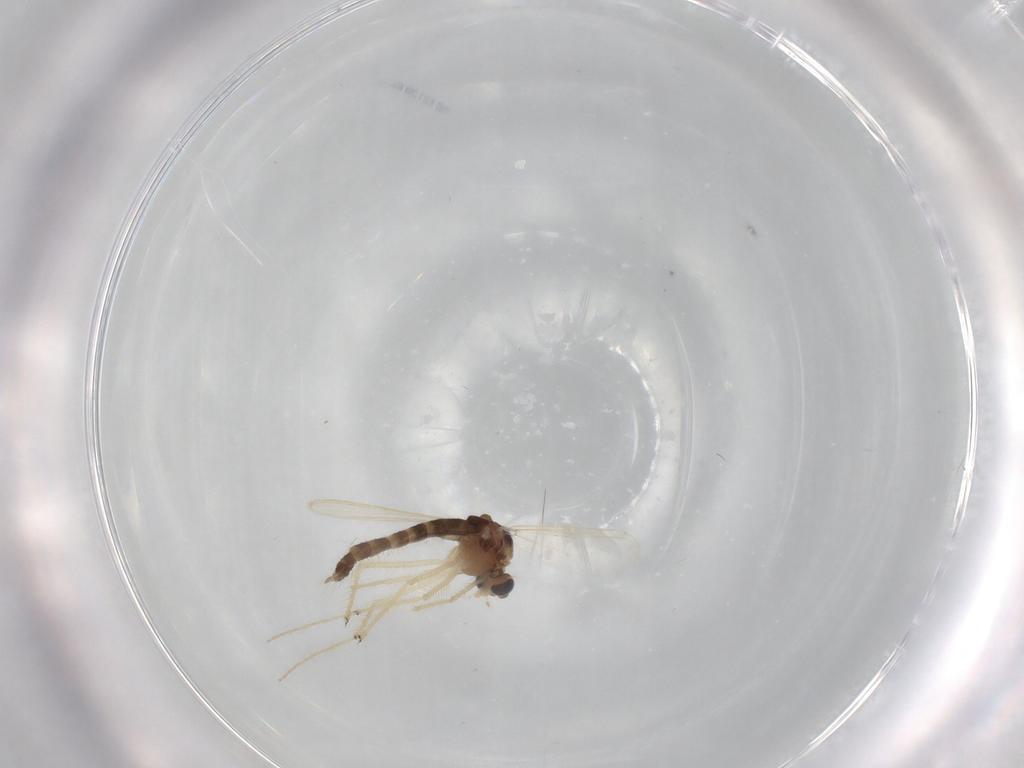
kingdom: Animalia
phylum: Arthropoda
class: Insecta
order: Diptera
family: Chironomidae
